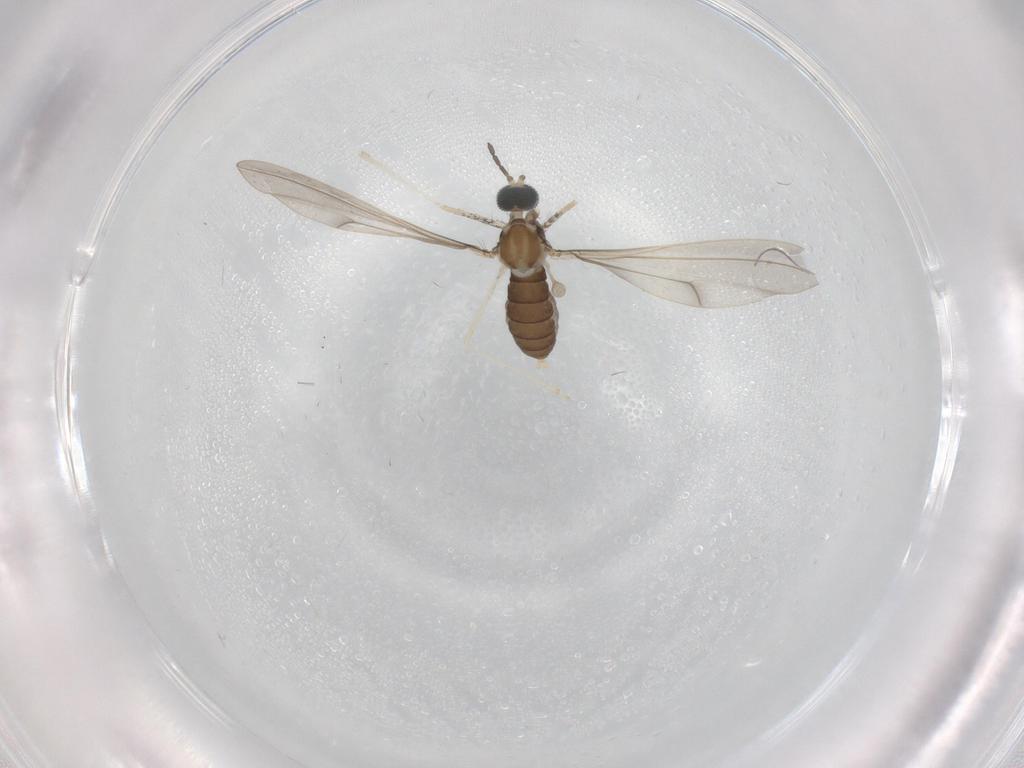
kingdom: Animalia
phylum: Arthropoda
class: Insecta
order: Diptera
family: Cecidomyiidae
